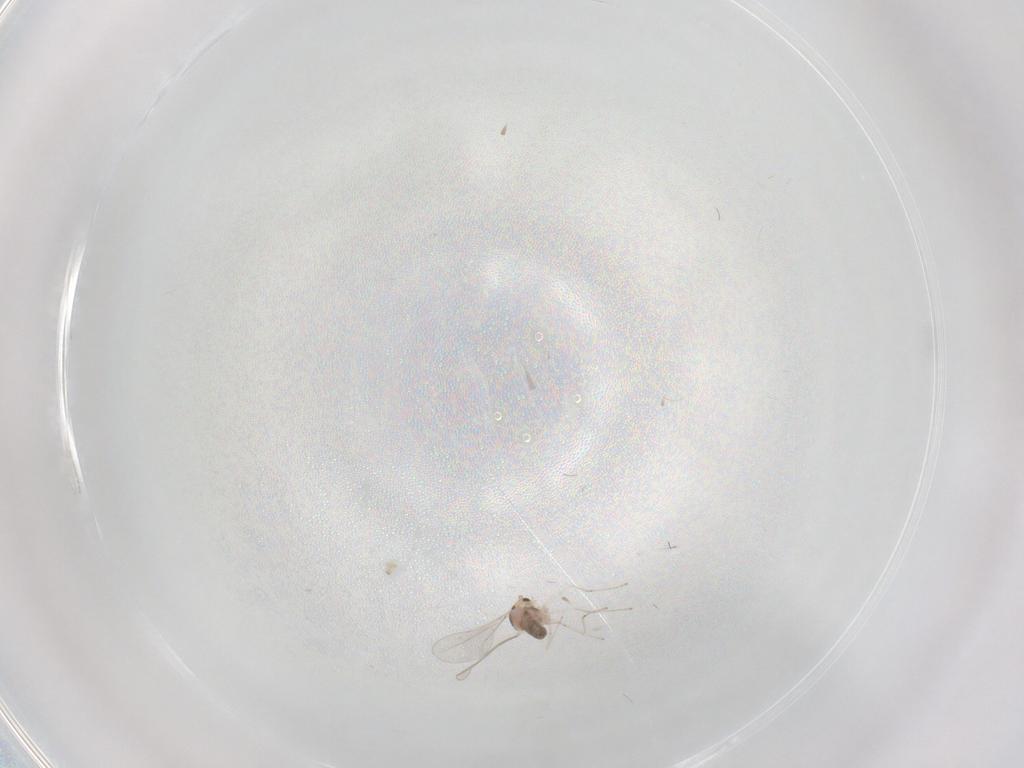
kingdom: Animalia
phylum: Arthropoda
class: Insecta
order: Diptera
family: Cecidomyiidae
